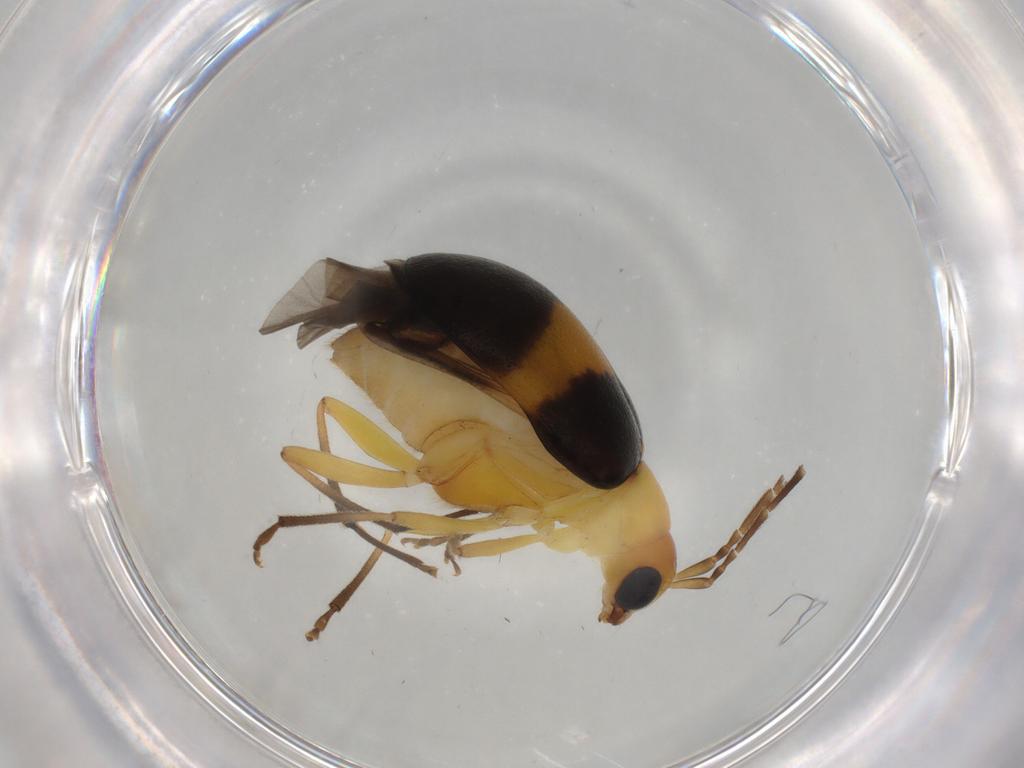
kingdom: Animalia
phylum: Arthropoda
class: Insecta
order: Coleoptera
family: Chrysomelidae
